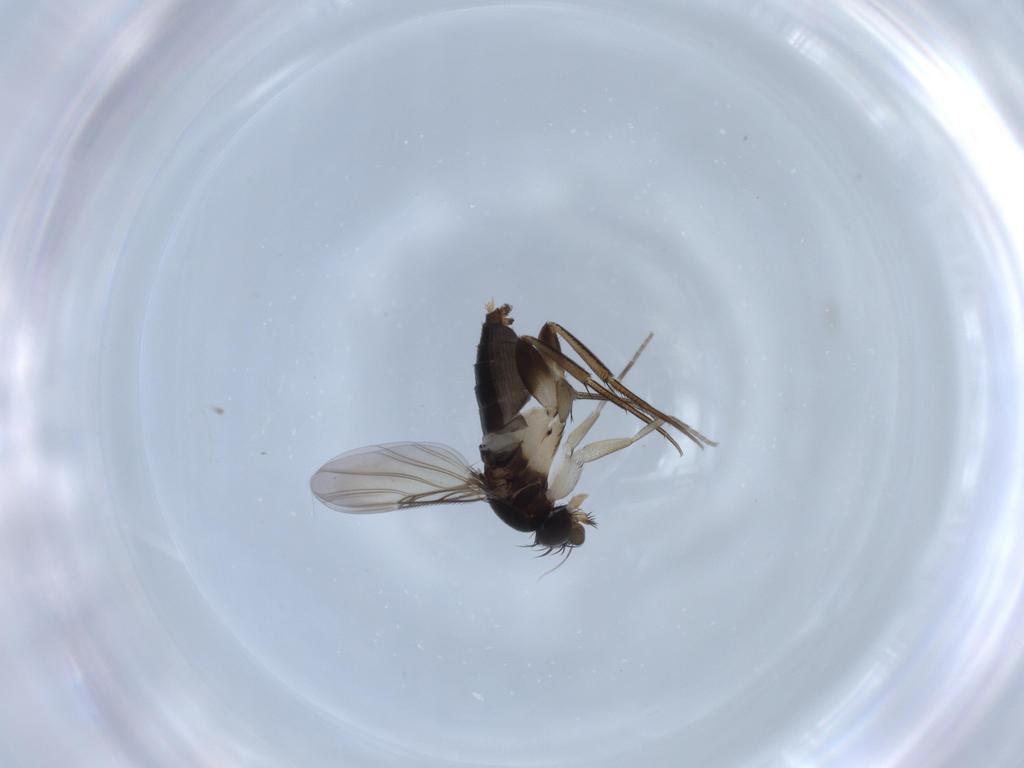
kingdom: Animalia
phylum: Arthropoda
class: Insecta
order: Diptera
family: Phoridae
